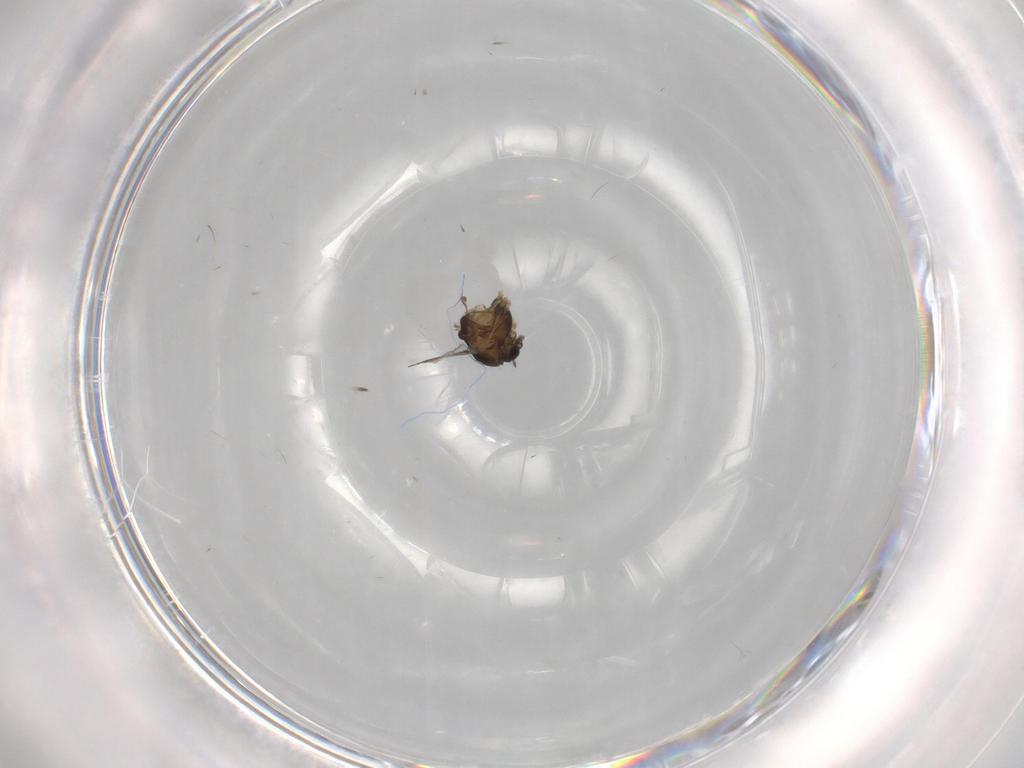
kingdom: Animalia
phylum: Arthropoda
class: Insecta
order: Diptera
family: Chironomidae
